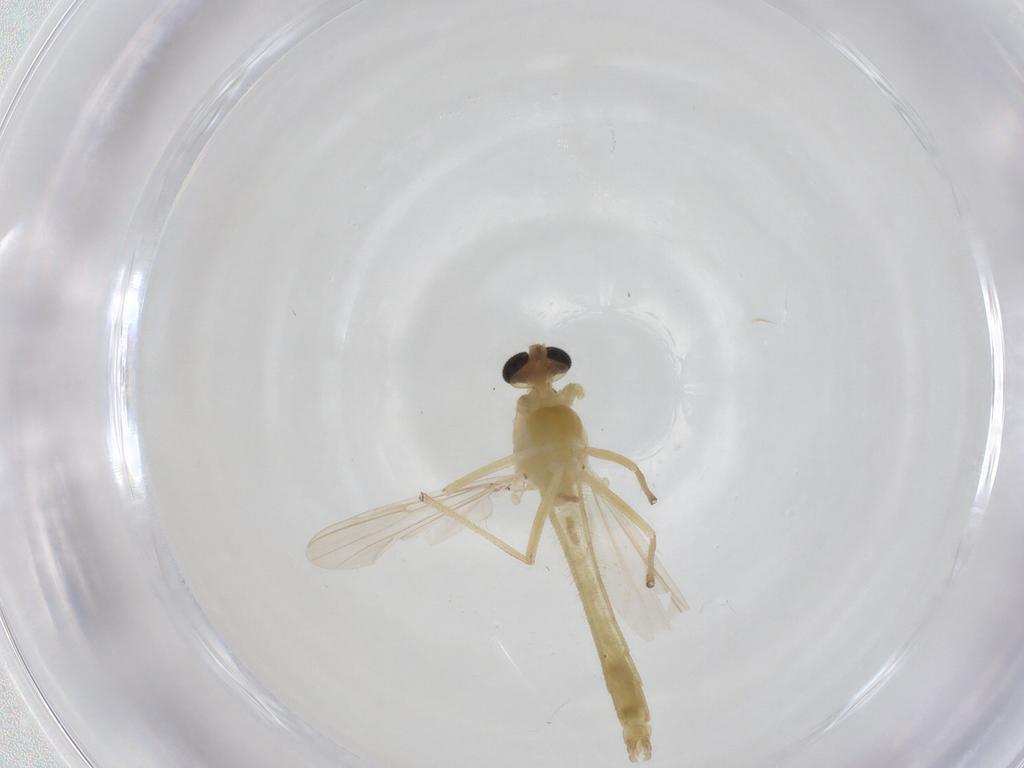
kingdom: Animalia
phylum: Arthropoda
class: Insecta
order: Diptera
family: Chironomidae
